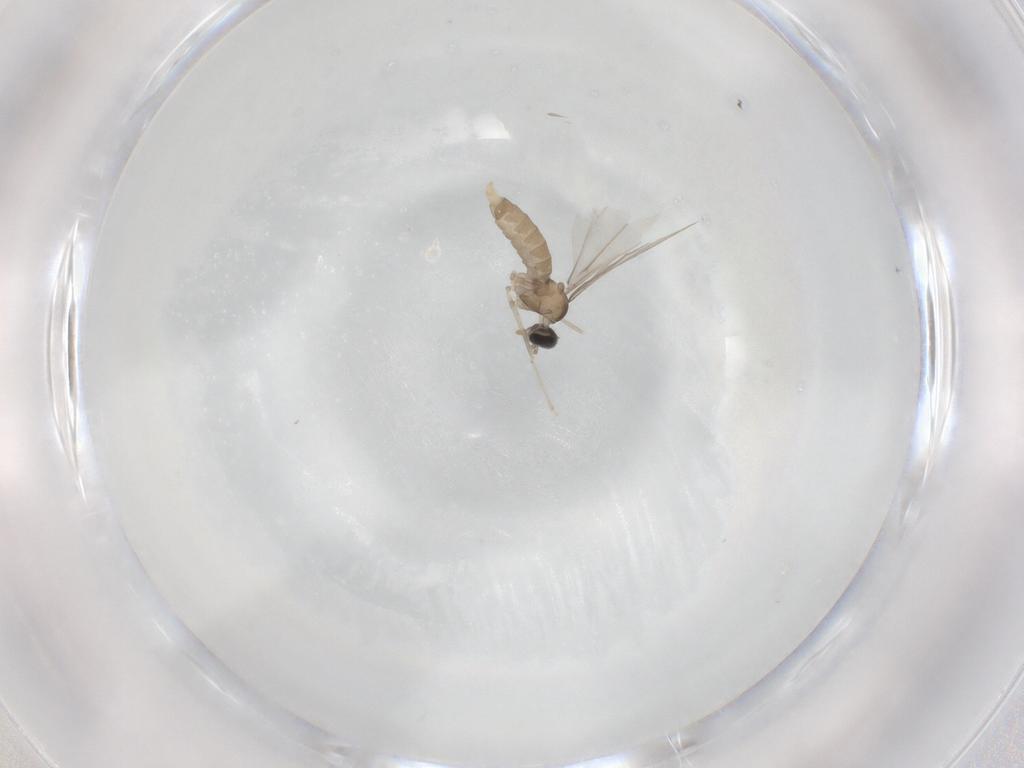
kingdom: Animalia
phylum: Arthropoda
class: Insecta
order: Diptera
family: Cecidomyiidae
